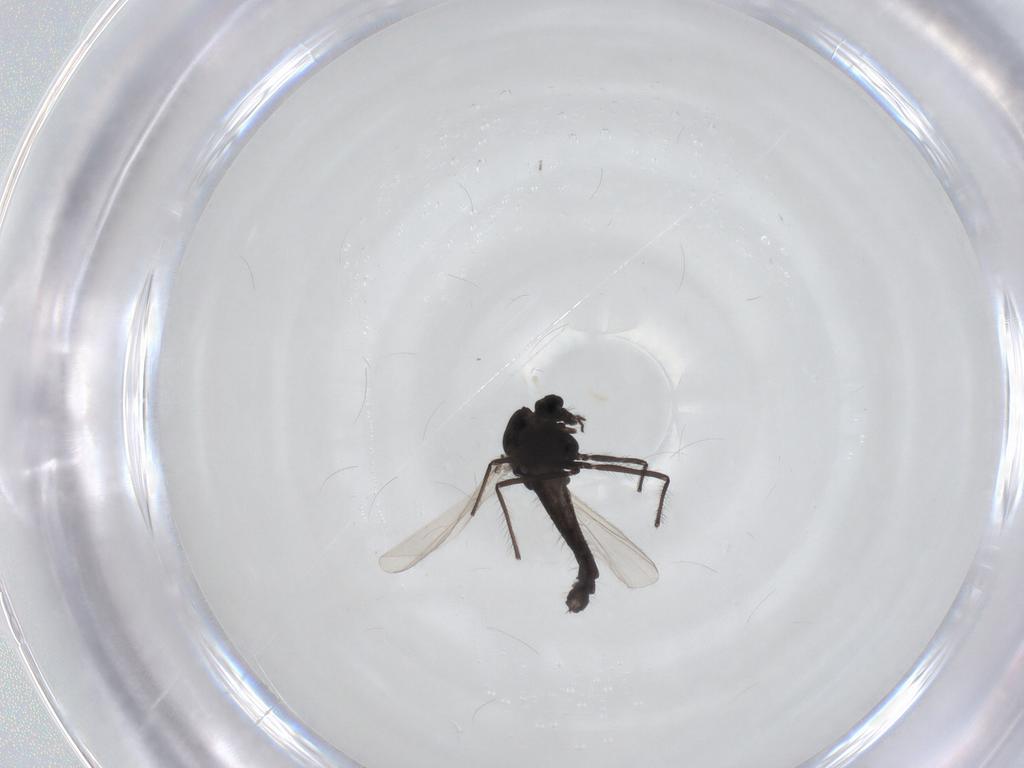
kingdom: Animalia
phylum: Arthropoda
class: Insecta
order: Diptera
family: Chironomidae
